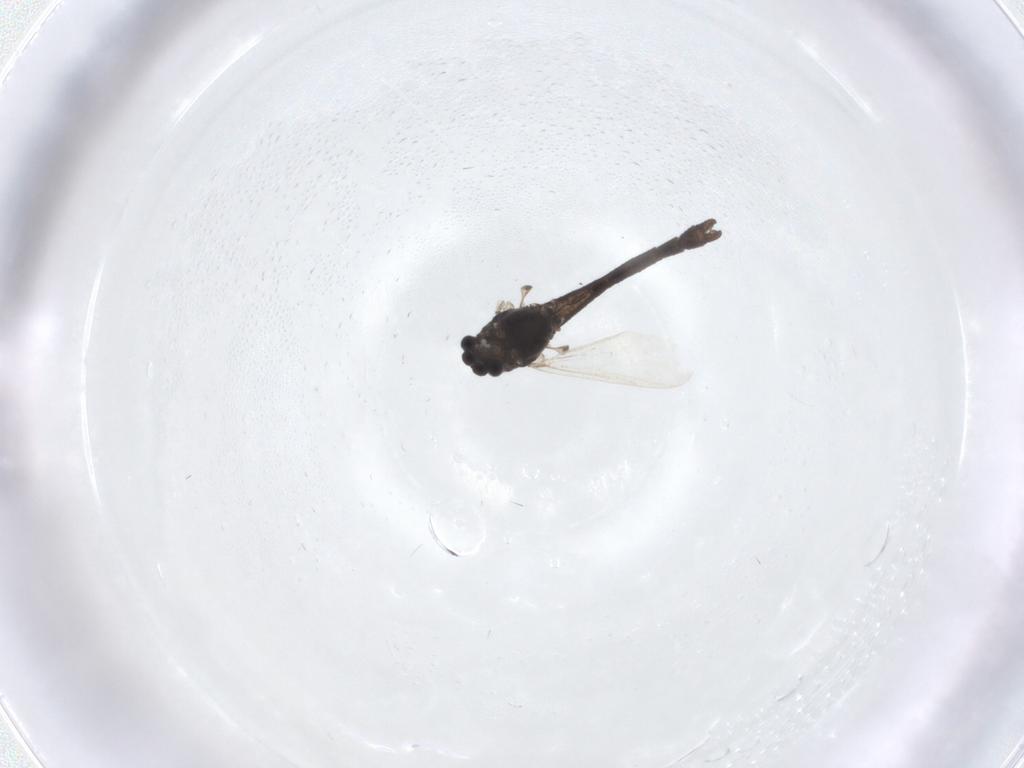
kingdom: Animalia
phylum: Arthropoda
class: Insecta
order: Diptera
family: Chironomidae
